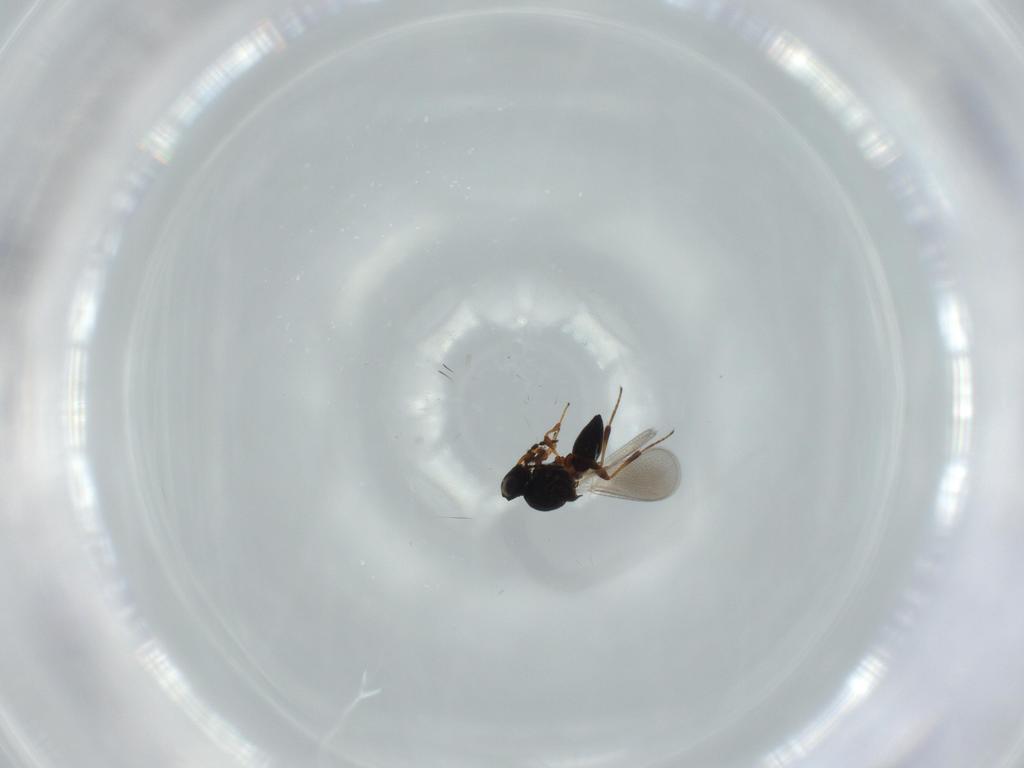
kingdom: Animalia
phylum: Arthropoda
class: Insecta
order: Hymenoptera
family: Platygastridae
